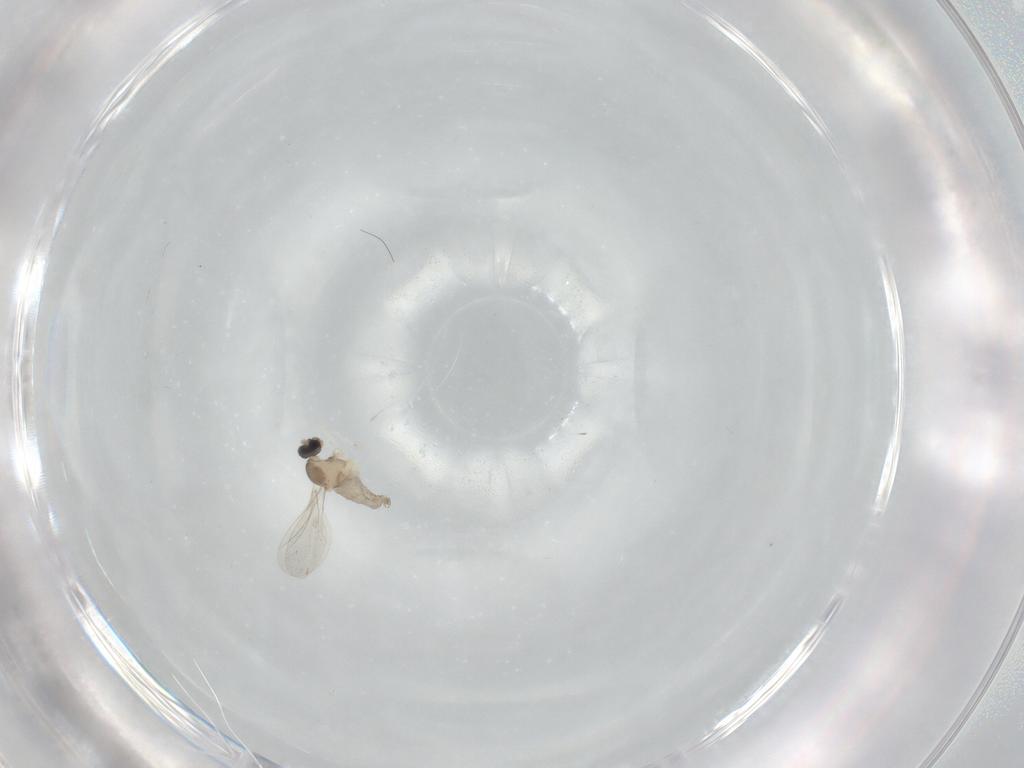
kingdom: Animalia
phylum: Arthropoda
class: Insecta
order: Diptera
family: Cecidomyiidae
